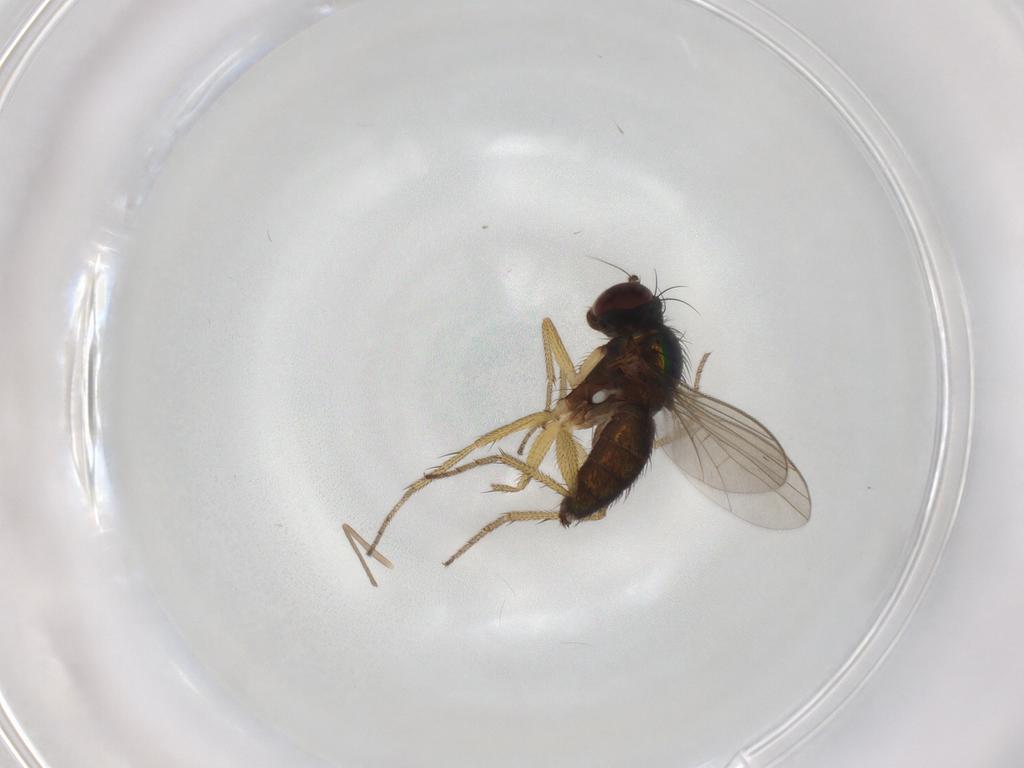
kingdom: Animalia
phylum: Arthropoda
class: Insecta
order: Diptera
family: Dolichopodidae
